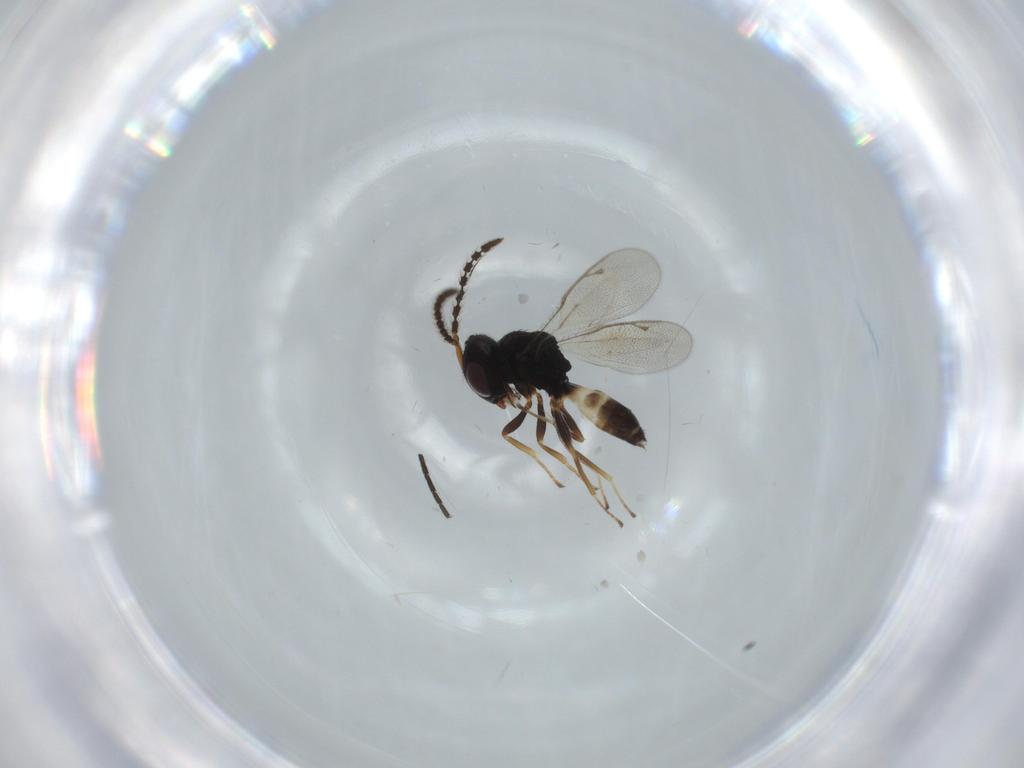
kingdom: Animalia
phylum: Arthropoda
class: Insecta
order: Hymenoptera
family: Pteromalidae
